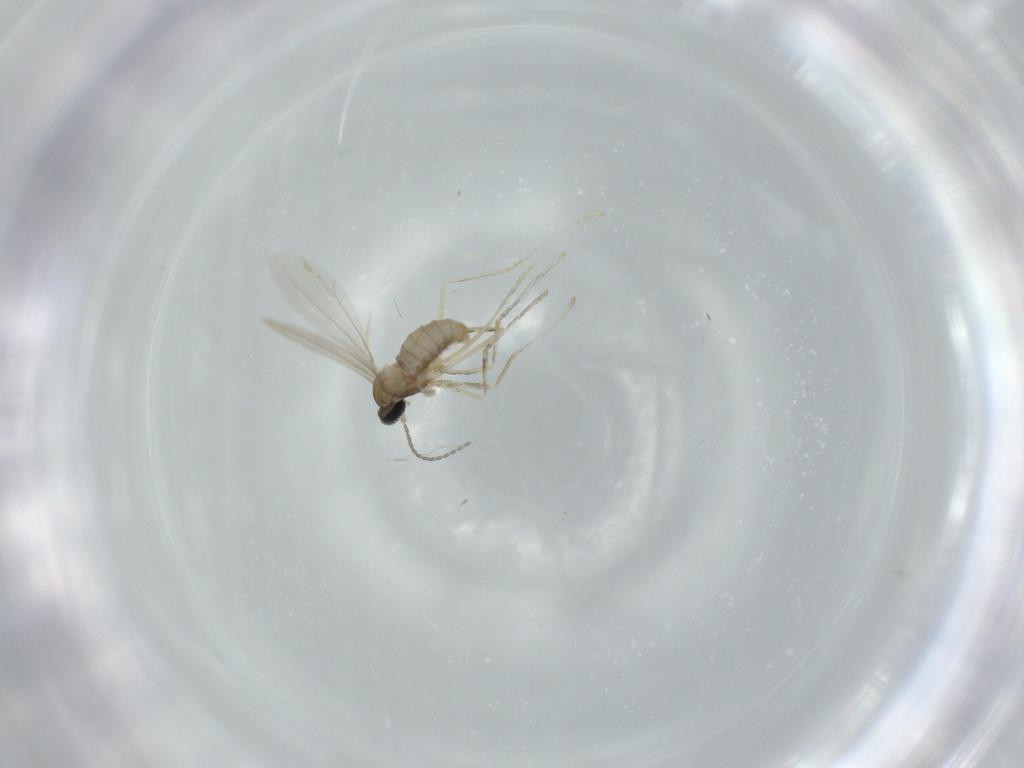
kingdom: Animalia
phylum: Arthropoda
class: Insecta
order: Diptera
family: Cecidomyiidae
